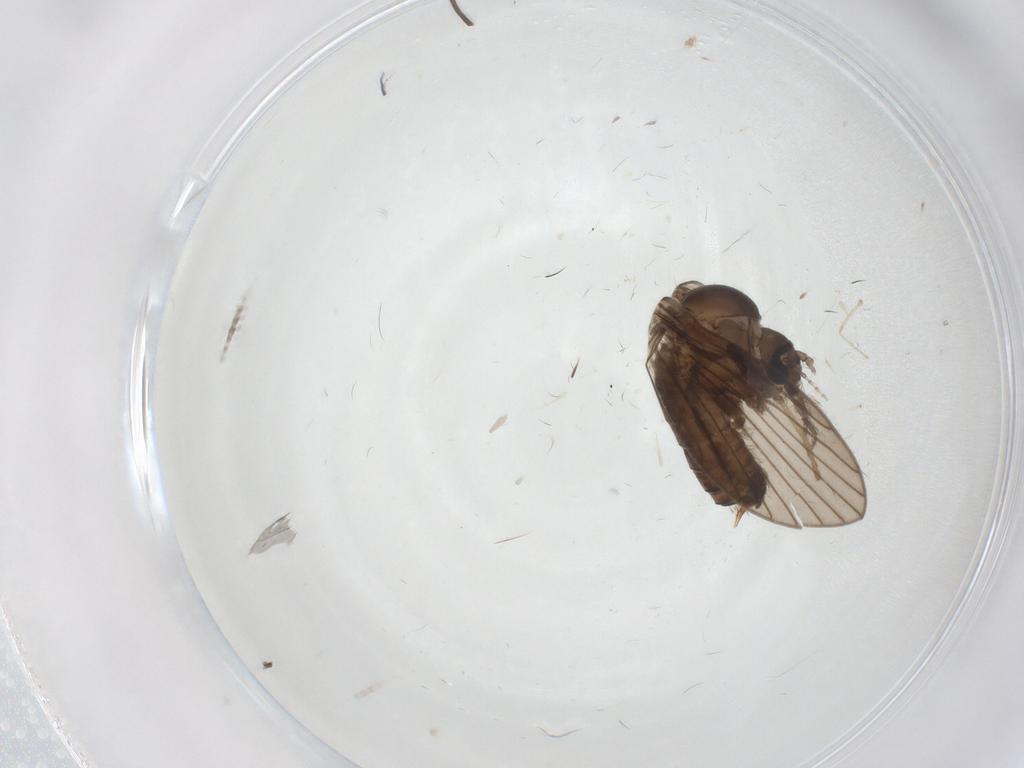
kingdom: Animalia
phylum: Arthropoda
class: Insecta
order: Diptera
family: Psychodidae
